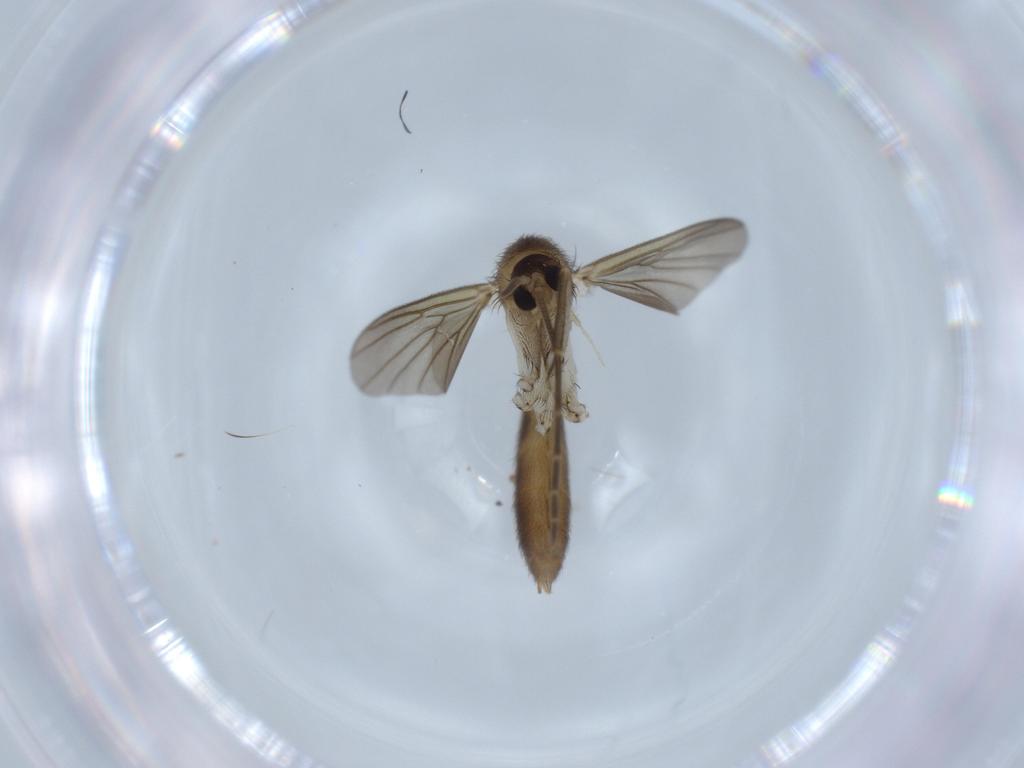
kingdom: Animalia
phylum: Arthropoda
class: Insecta
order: Diptera
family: Mycetophilidae
